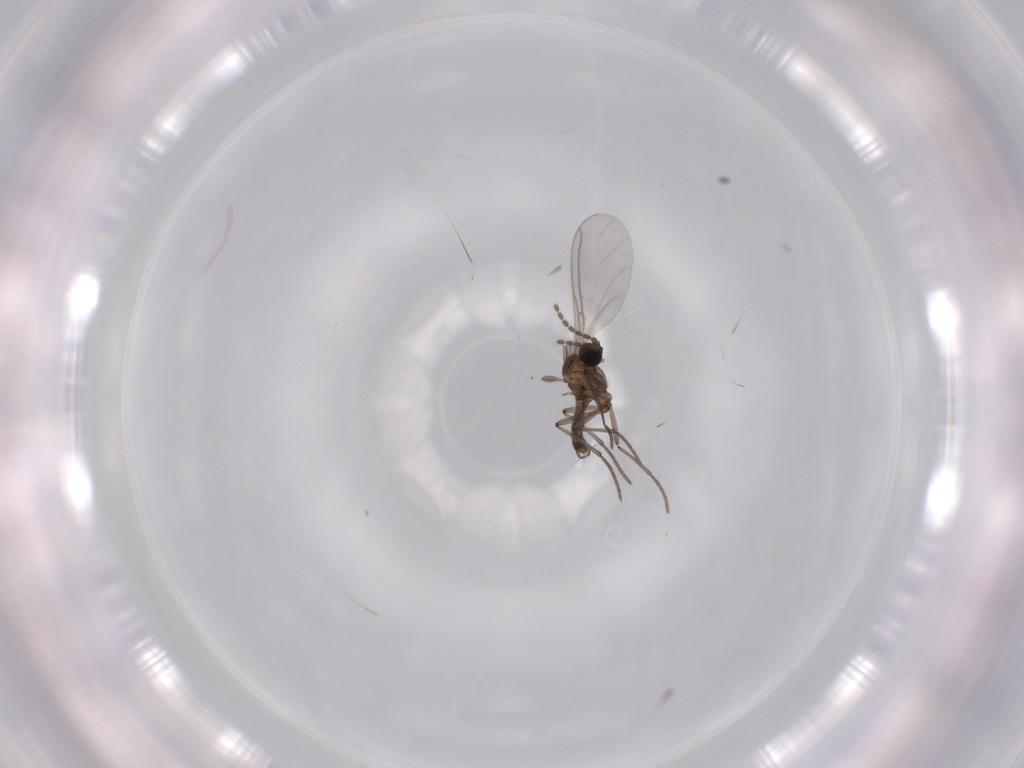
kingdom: Animalia
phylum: Arthropoda
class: Insecta
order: Diptera
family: Sciaridae
